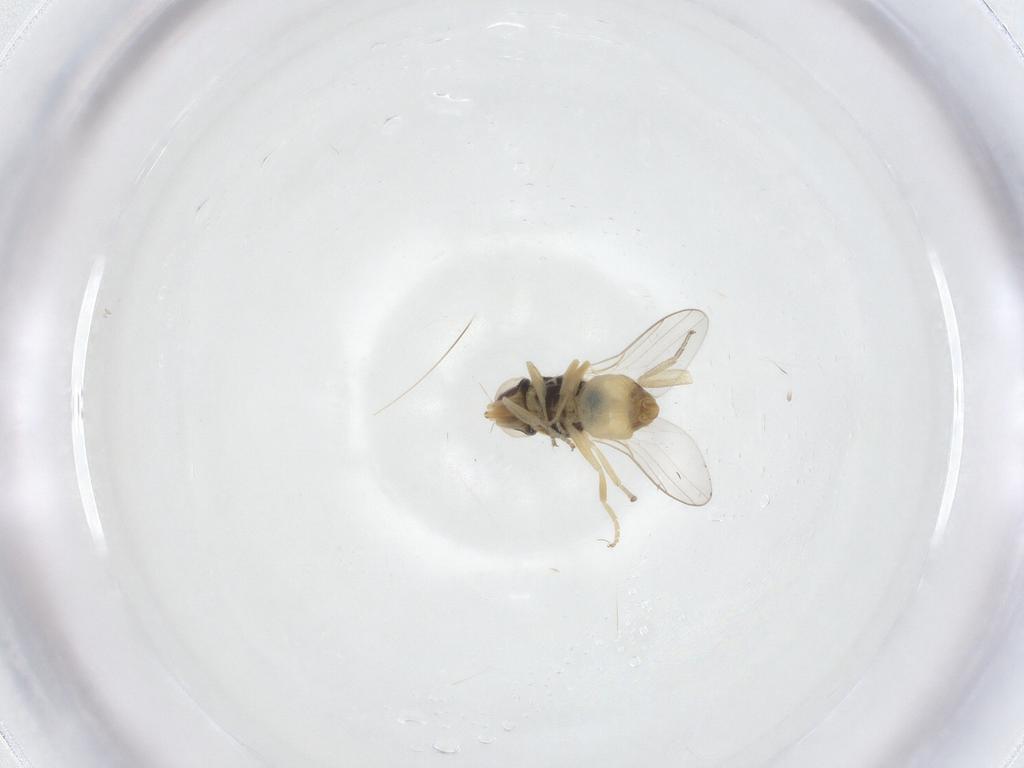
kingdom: Animalia
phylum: Arthropoda
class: Insecta
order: Diptera
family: Chloropidae
